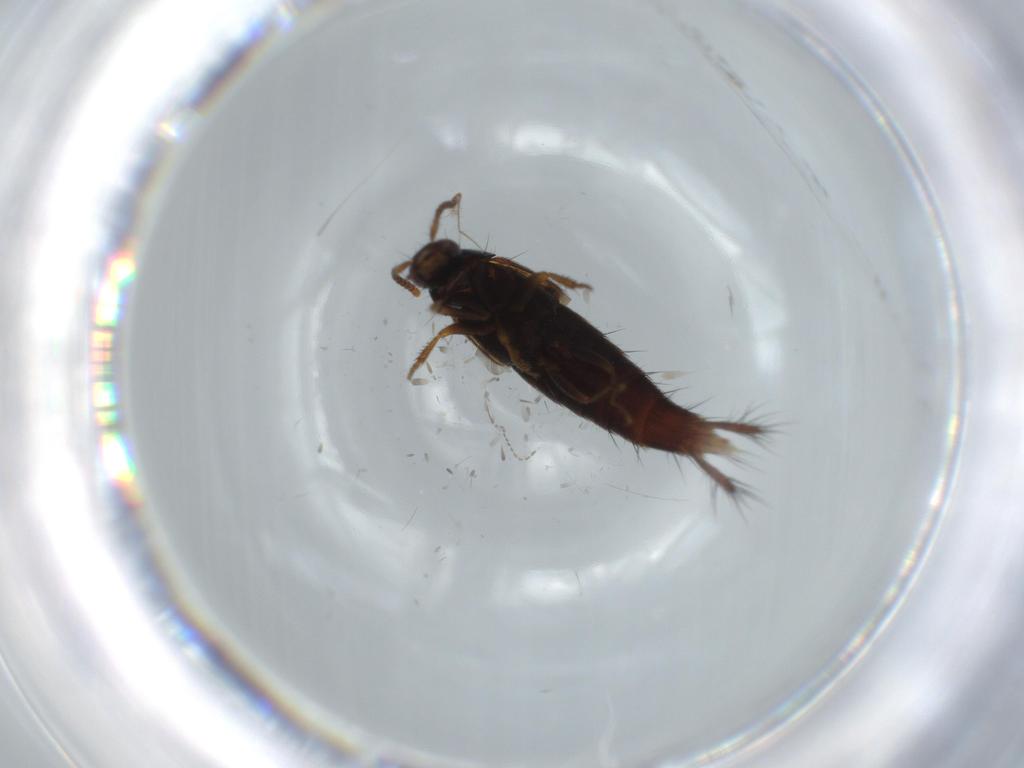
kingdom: Animalia
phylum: Arthropoda
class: Insecta
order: Coleoptera
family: Staphylinidae
